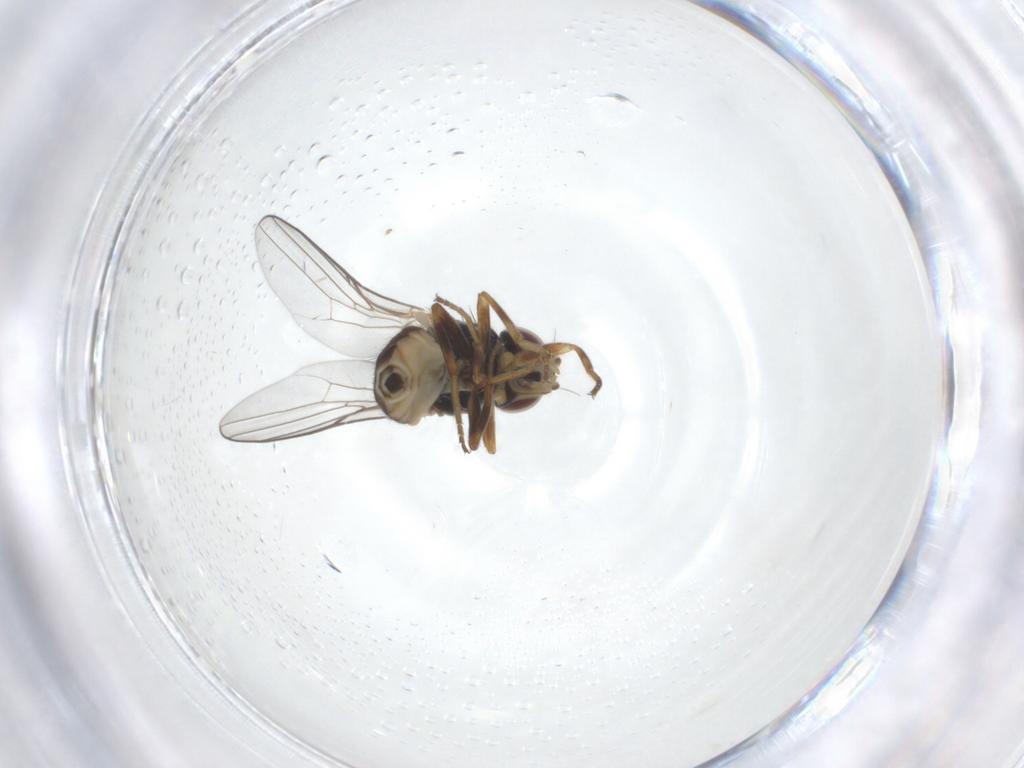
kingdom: Animalia
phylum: Arthropoda
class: Insecta
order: Diptera
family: Chloropidae
